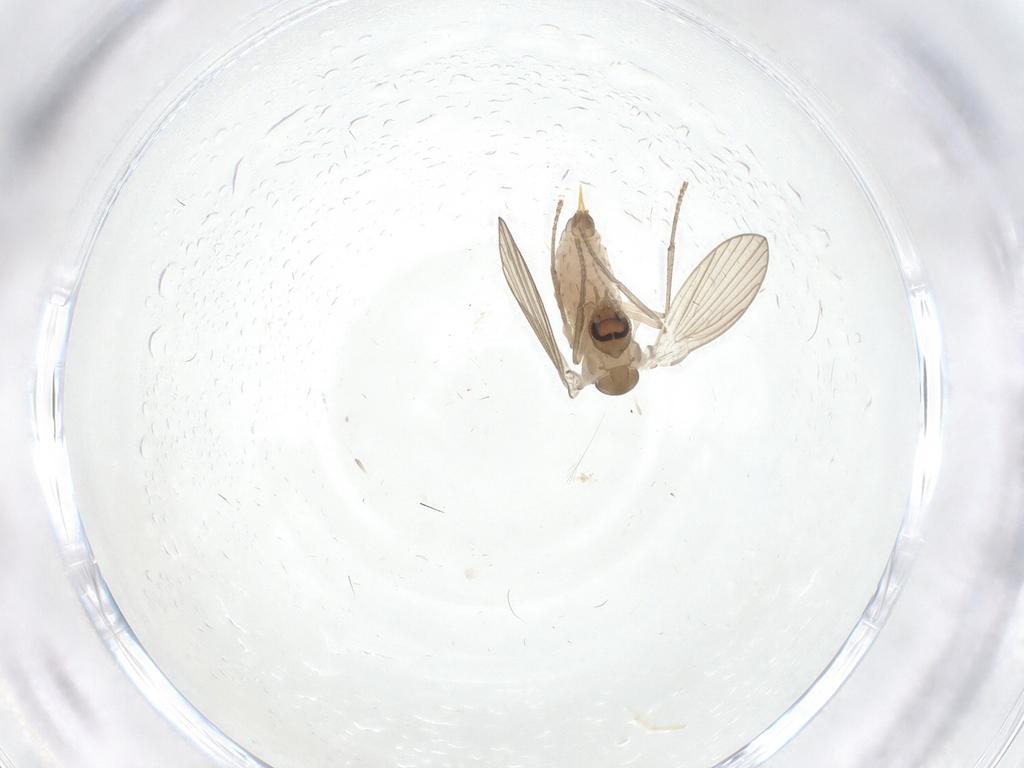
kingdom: Animalia
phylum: Arthropoda
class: Insecta
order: Diptera
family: Psychodidae
